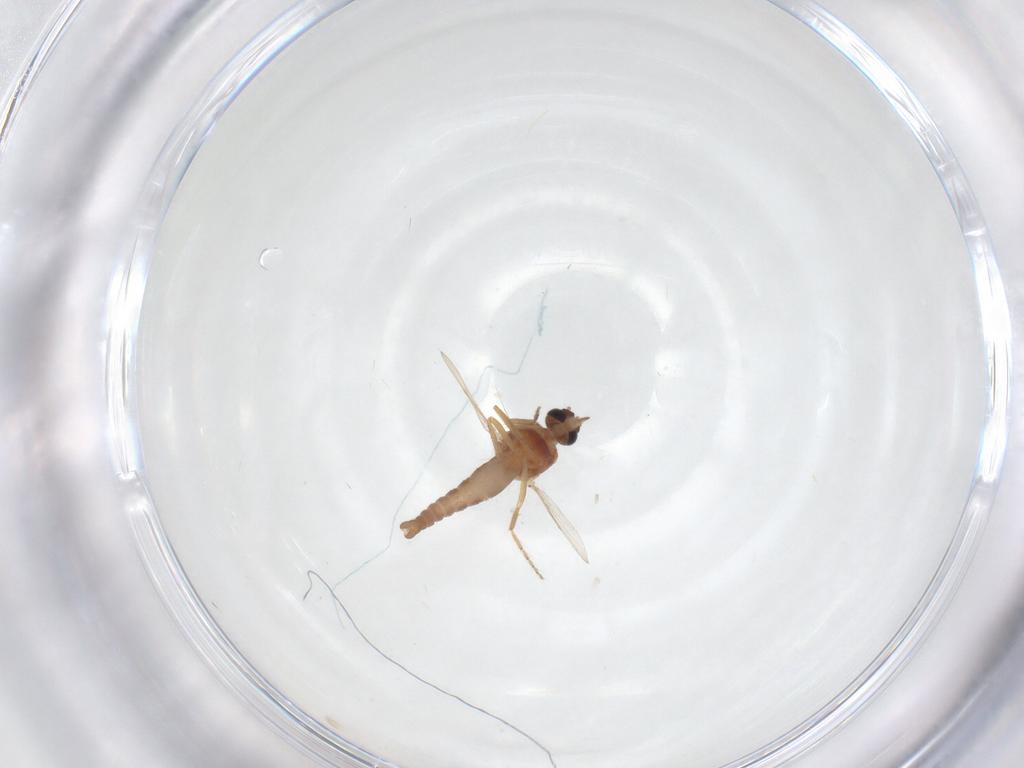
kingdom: Animalia
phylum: Arthropoda
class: Insecta
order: Diptera
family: Ceratopogonidae
